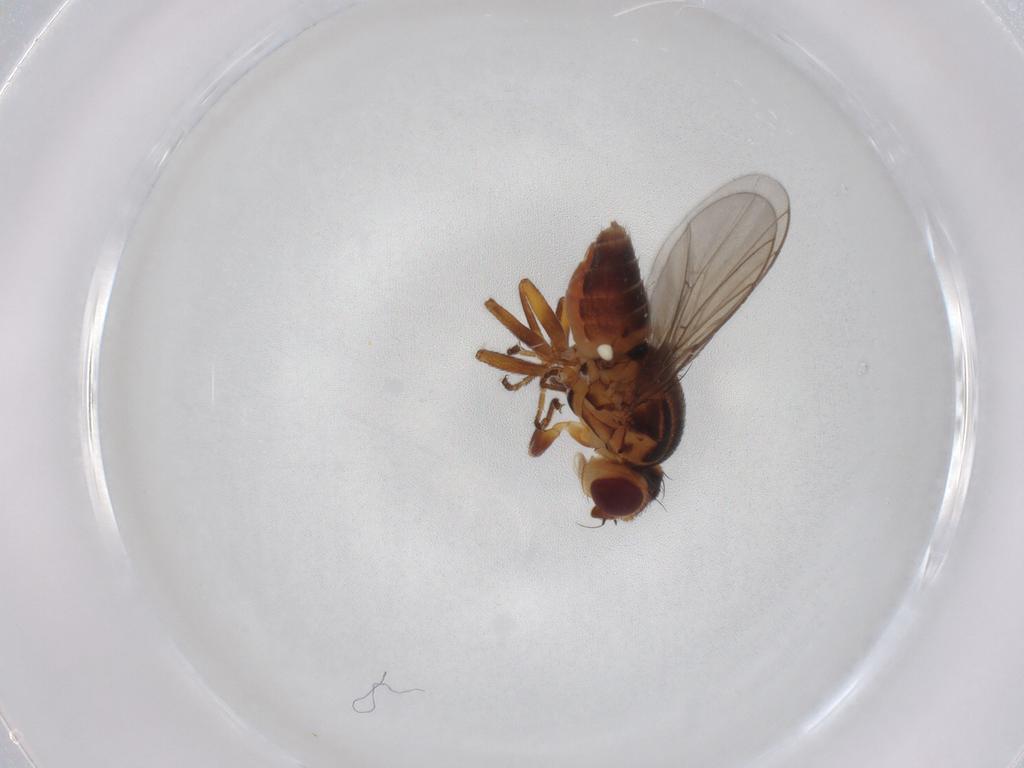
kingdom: Animalia
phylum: Arthropoda
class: Insecta
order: Diptera
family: Chloropidae
